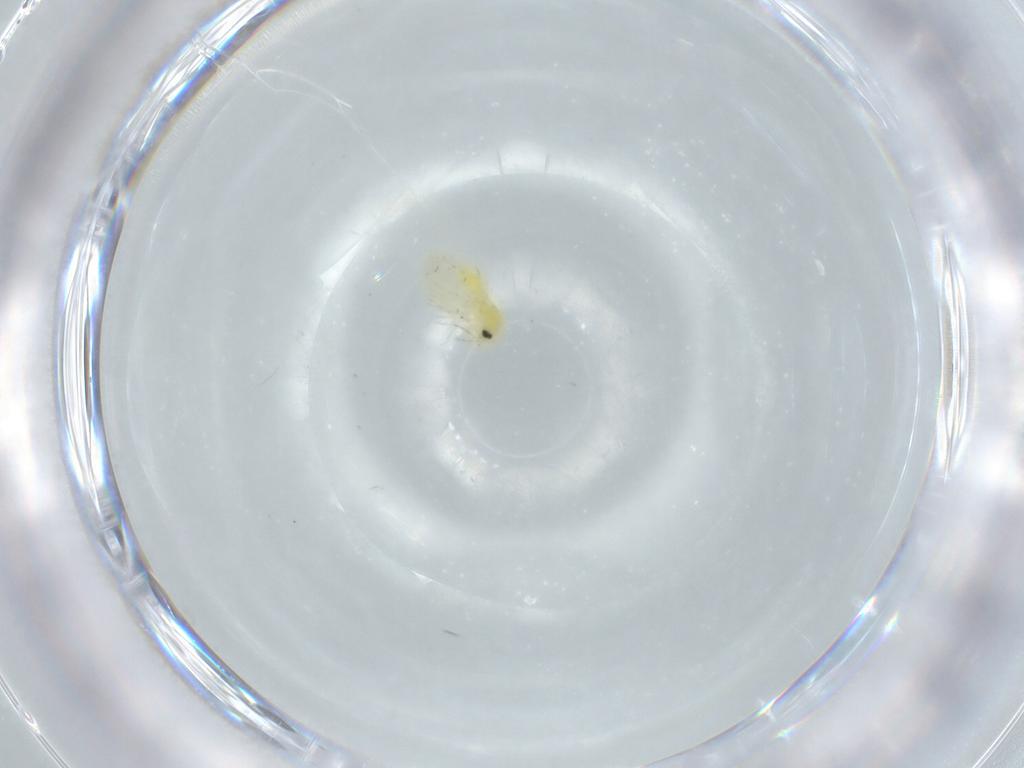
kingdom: Animalia
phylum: Arthropoda
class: Insecta
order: Hemiptera
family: Aleyrodidae
